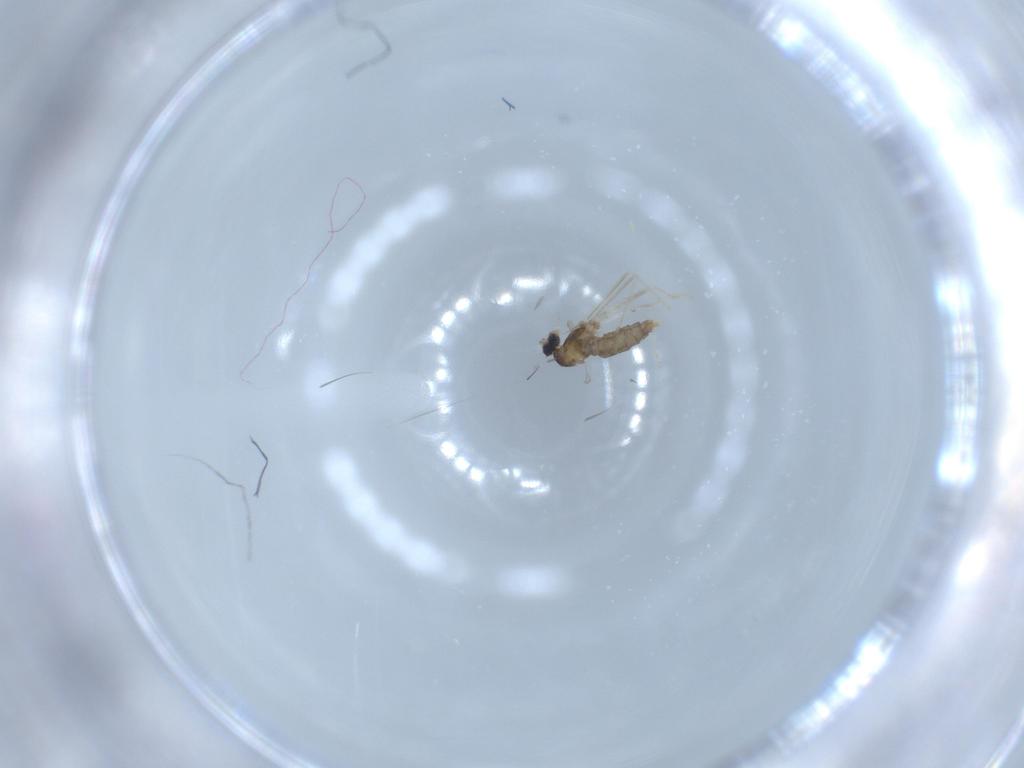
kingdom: Animalia
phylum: Arthropoda
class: Insecta
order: Diptera
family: Cecidomyiidae
